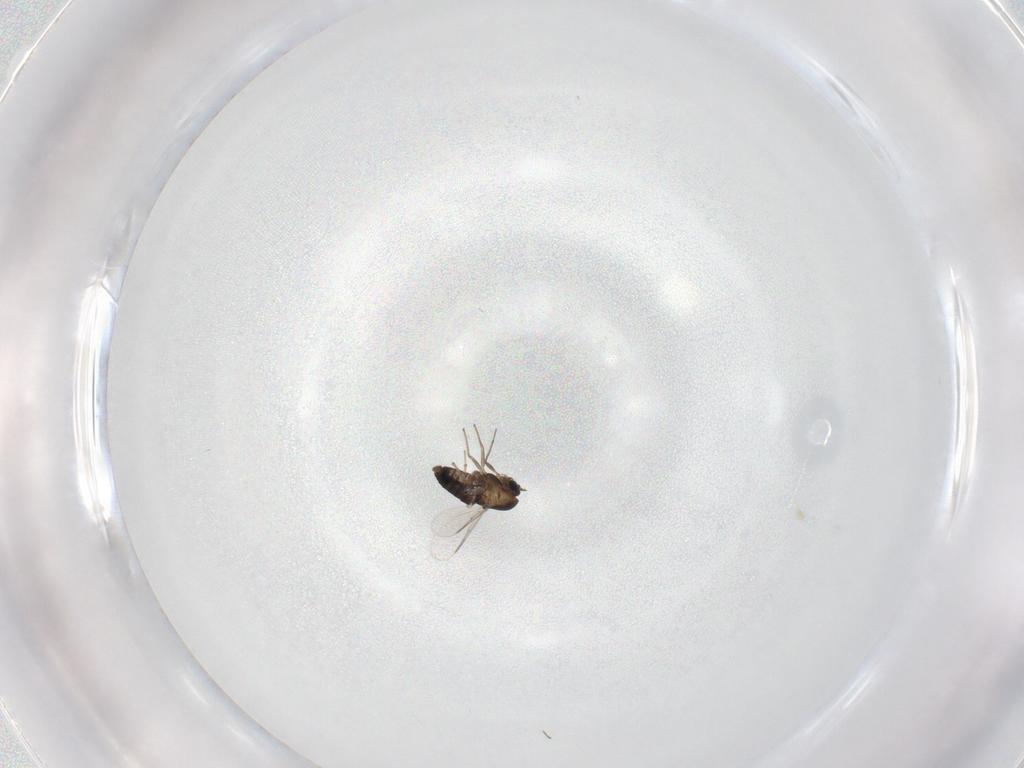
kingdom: Animalia
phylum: Arthropoda
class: Insecta
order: Diptera
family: Chironomidae
